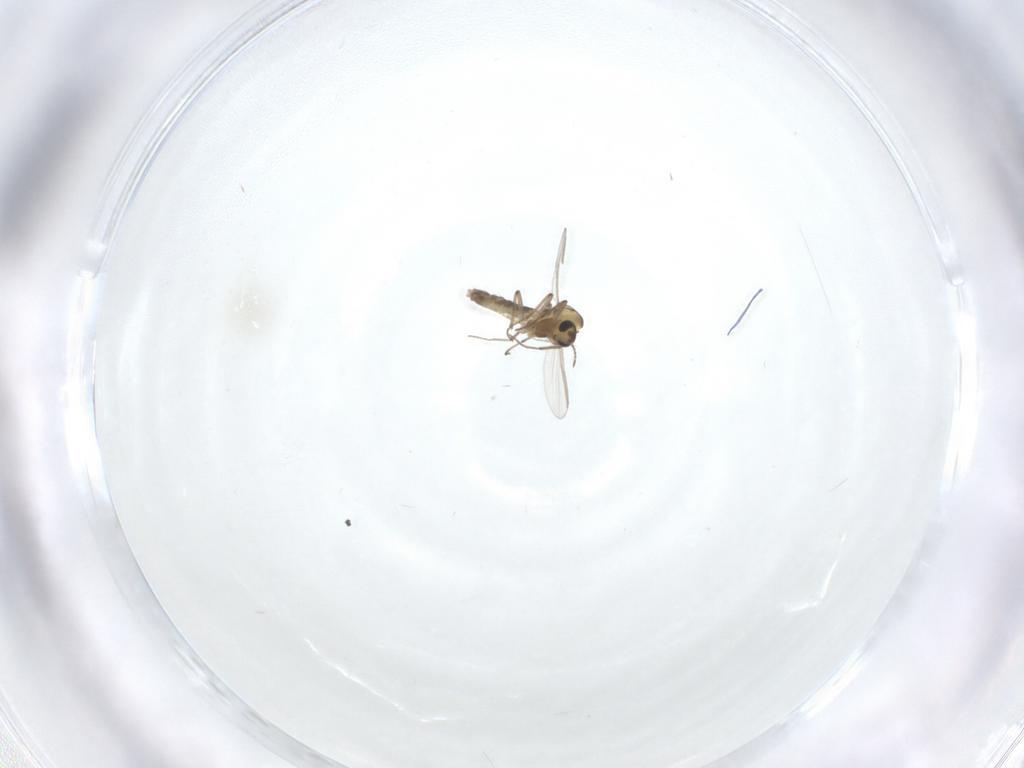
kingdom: Animalia
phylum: Arthropoda
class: Insecta
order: Diptera
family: Chironomidae
